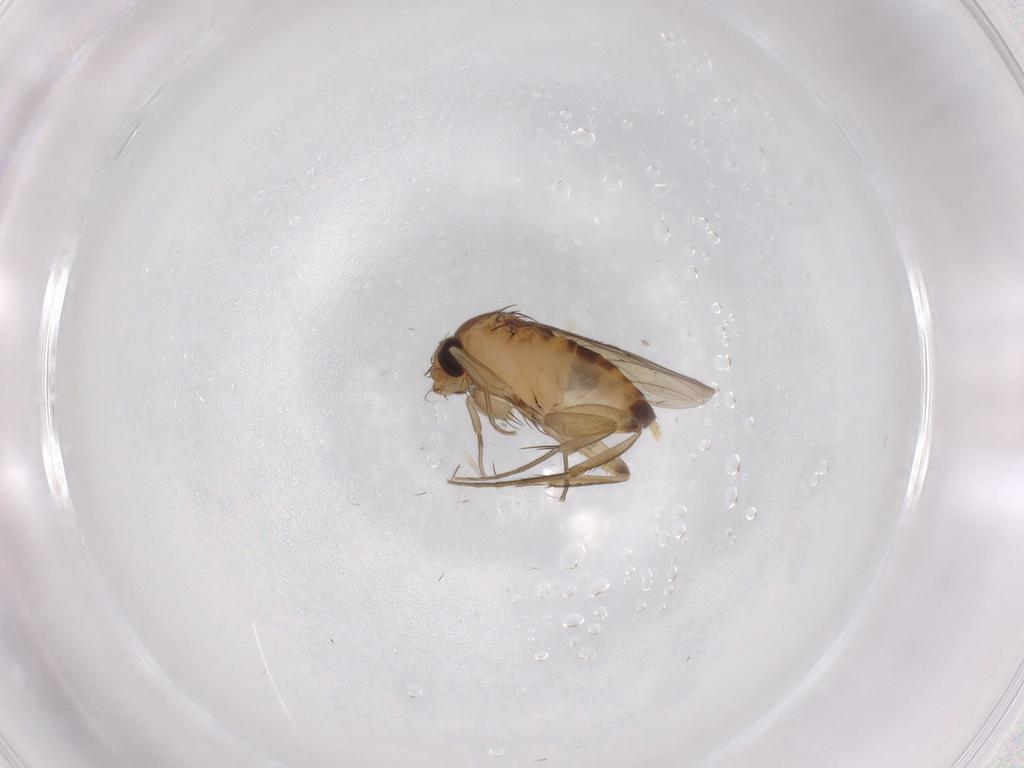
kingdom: Animalia
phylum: Arthropoda
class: Insecta
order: Diptera
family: Phoridae
